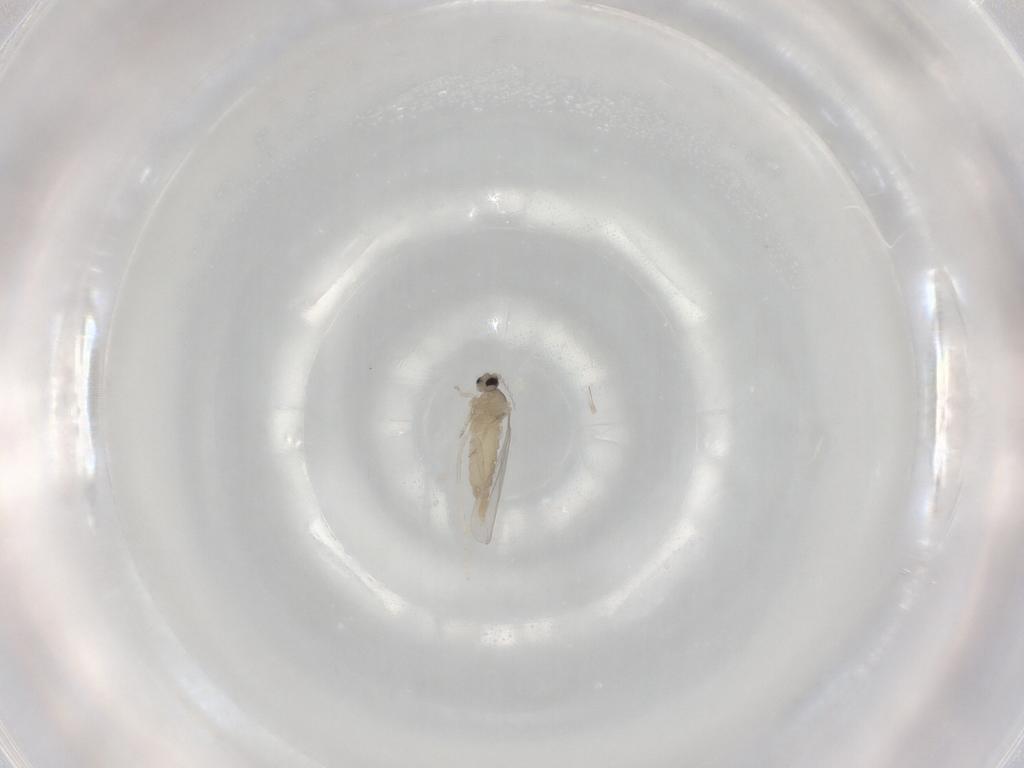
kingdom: Animalia
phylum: Arthropoda
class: Insecta
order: Diptera
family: Cecidomyiidae
